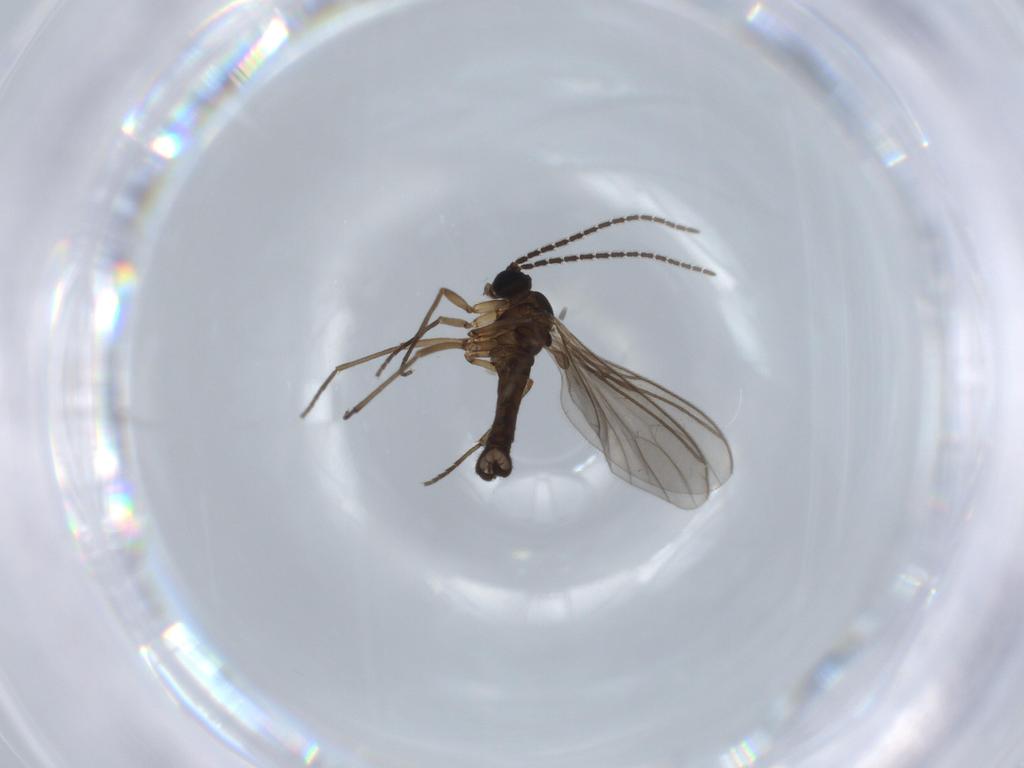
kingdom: Animalia
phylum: Arthropoda
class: Insecta
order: Diptera
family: Sciaridae
